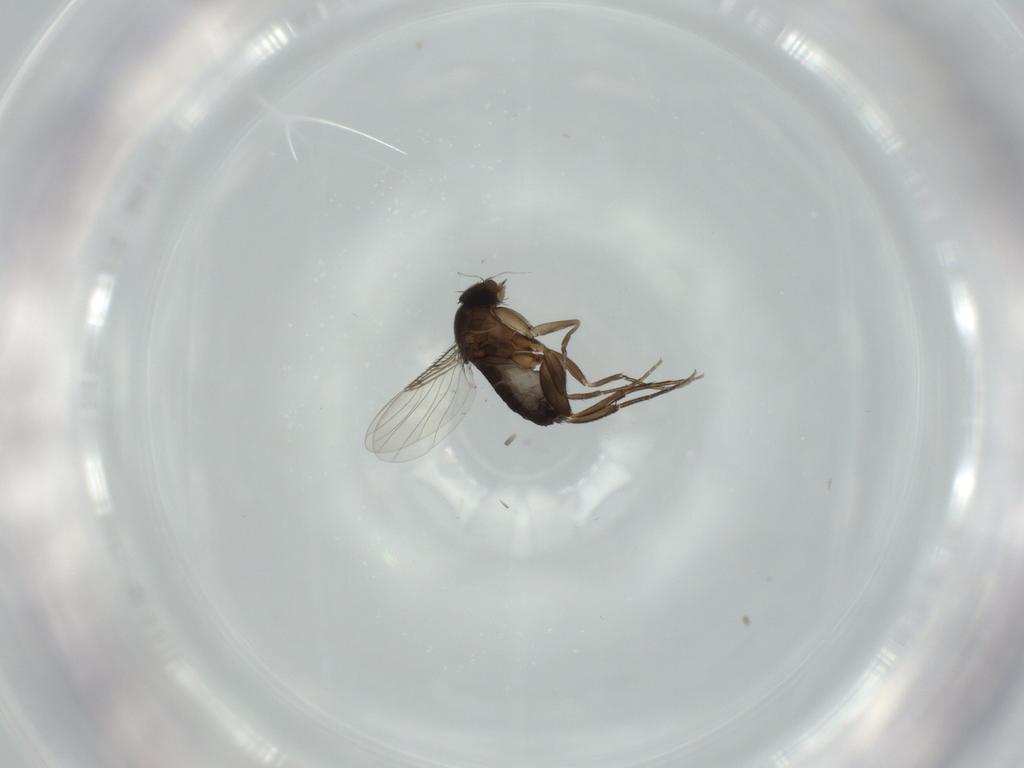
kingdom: Animalia
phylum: Arthropoda
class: Insecta
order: Diptera
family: Phoridae
